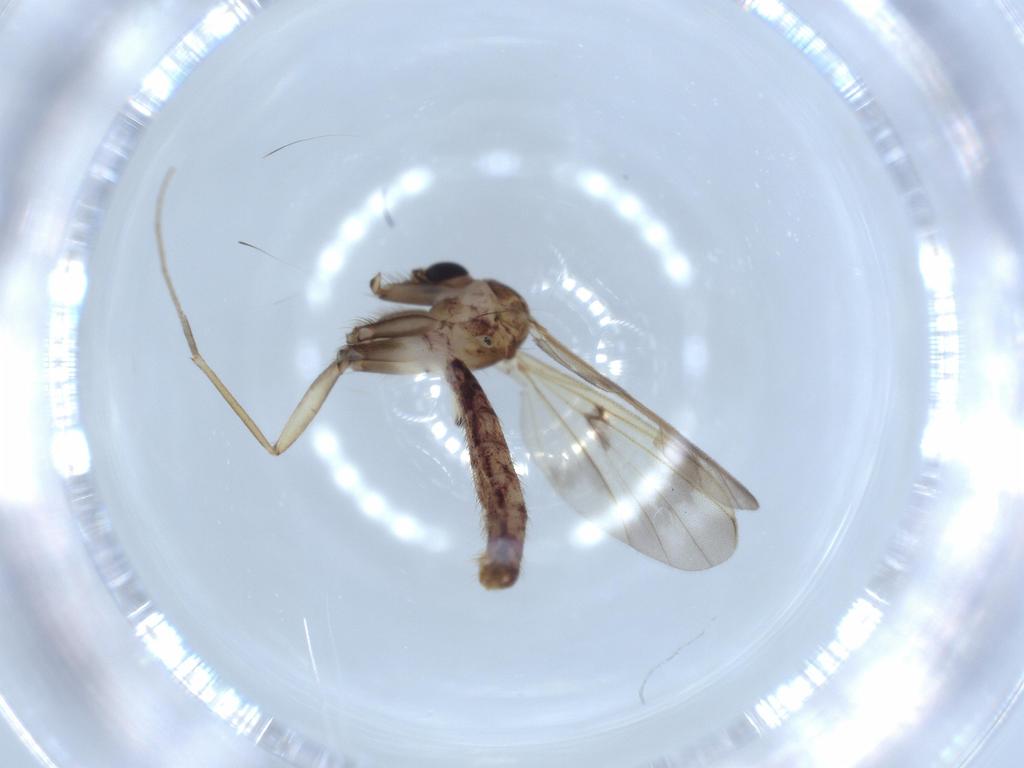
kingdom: Animalia
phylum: Arthropoda
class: Insecta
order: Diptera
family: Mycetophilidae
